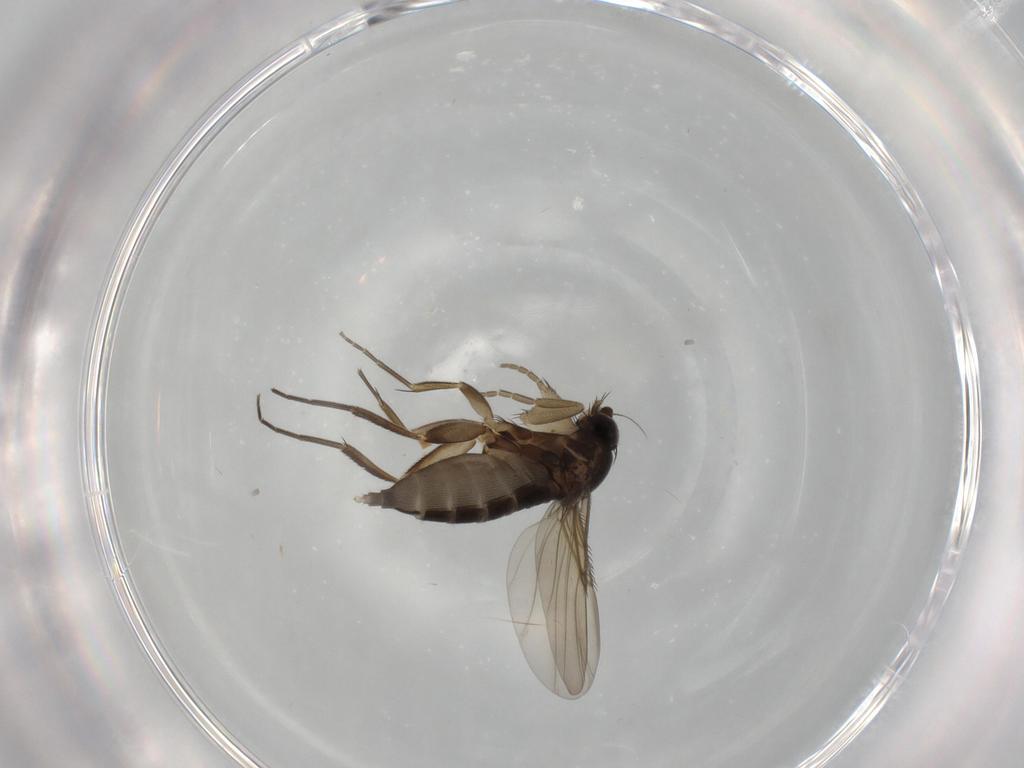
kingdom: Animalia
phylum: Arthropoda
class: Insecta
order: Diptera
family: Phoridae
